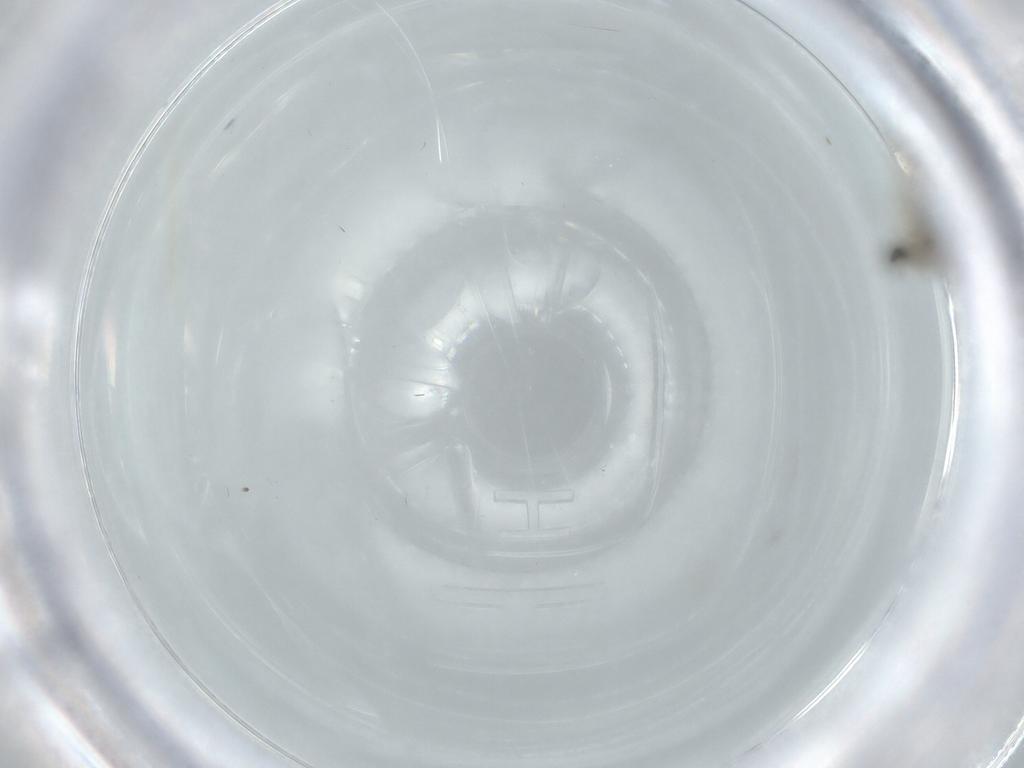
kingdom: Animalia
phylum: Arthropoda
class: Insecta
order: Diptera
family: Cecidomyiidae
